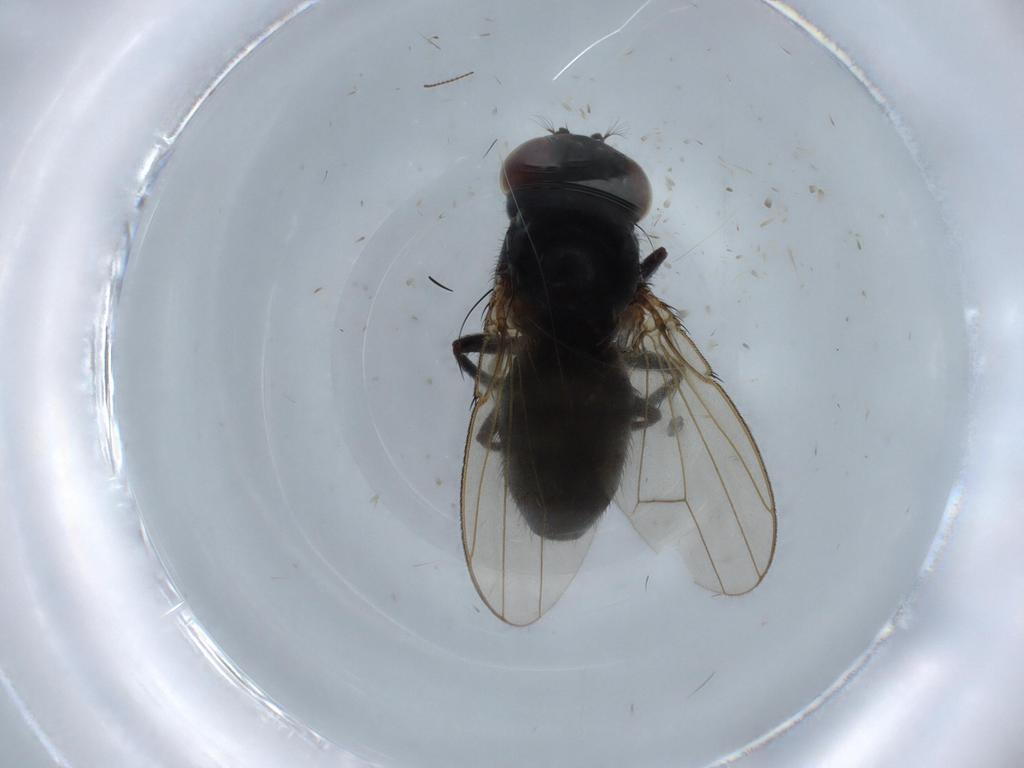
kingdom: Animalia
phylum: Arthropoda
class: Insecta
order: Diptera
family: Ephydridae
